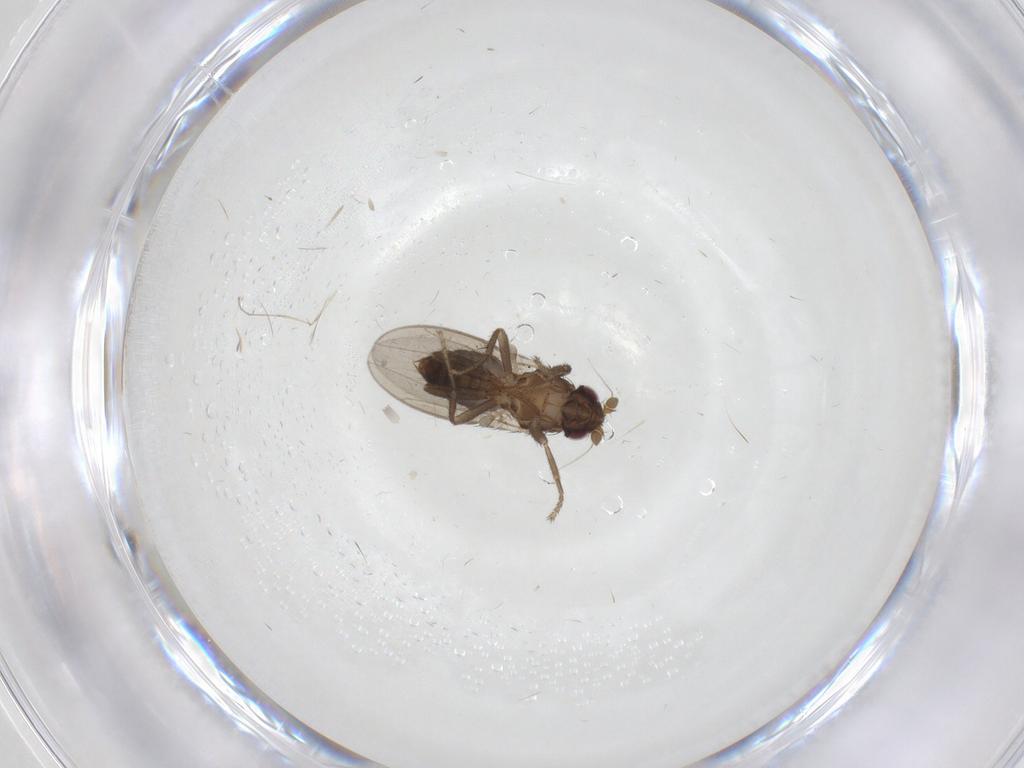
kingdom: Animalia
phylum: Arthropoda
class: Insecta
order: Diptera
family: Sphaeroceridae
